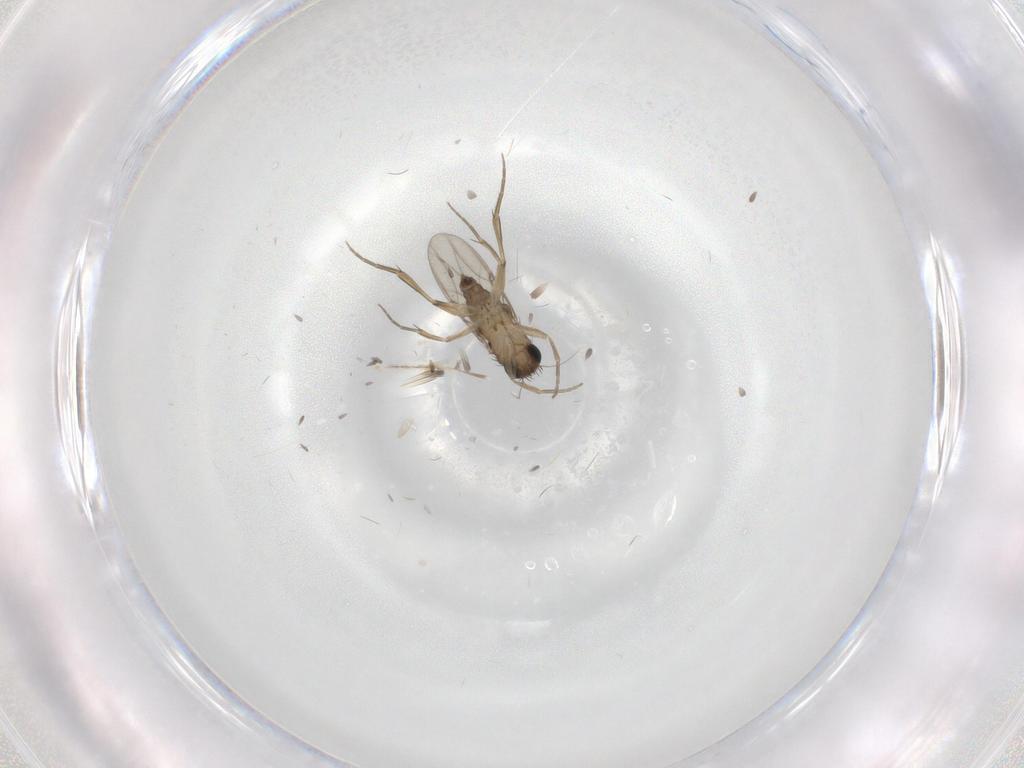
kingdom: Animalia
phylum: Arthropoda
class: Insecta
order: Diptera
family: Phoridae
